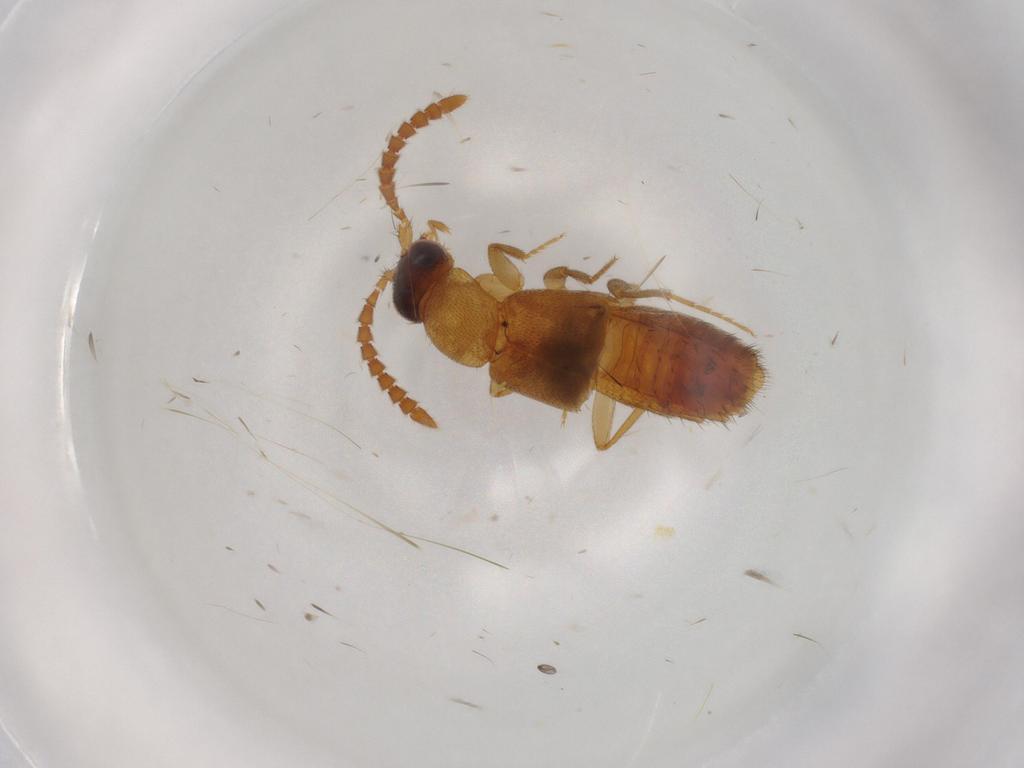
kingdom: Animalia
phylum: Arthropoda
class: Insecta
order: Coleoptera
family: Staphylinidae
